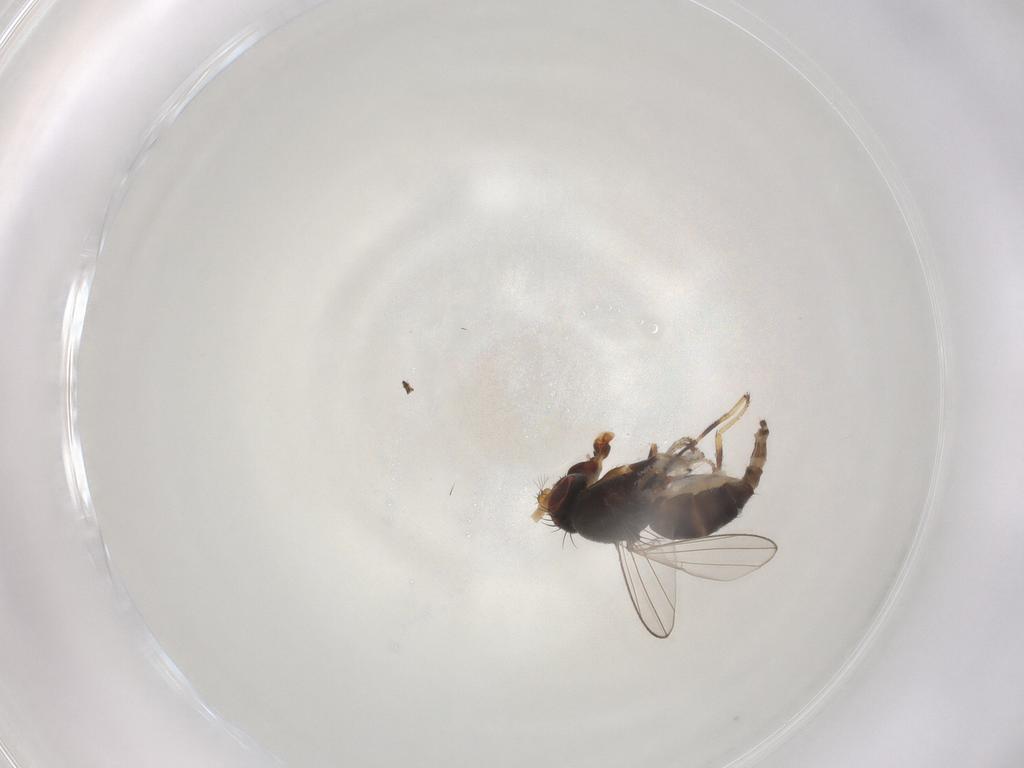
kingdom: Animalia
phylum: Arthropoda
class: Insecta
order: Diptera
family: Ephydridae
